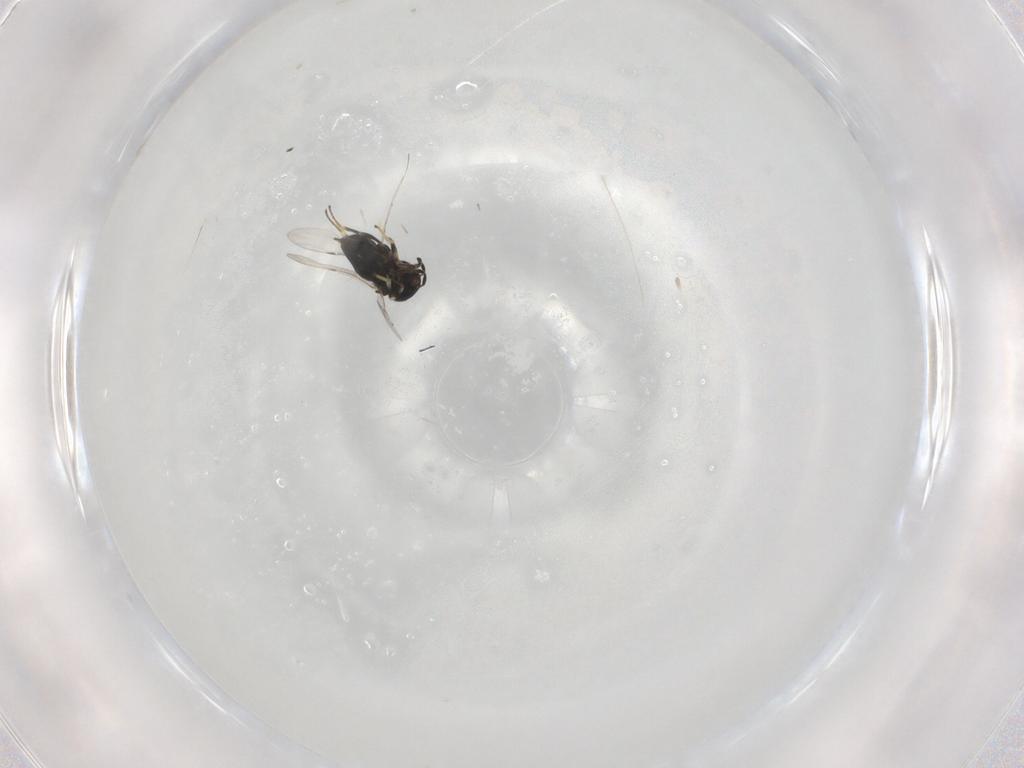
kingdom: Animalia
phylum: Arthropoda
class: Insecta
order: Hymenoptera
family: Encyrtidae
